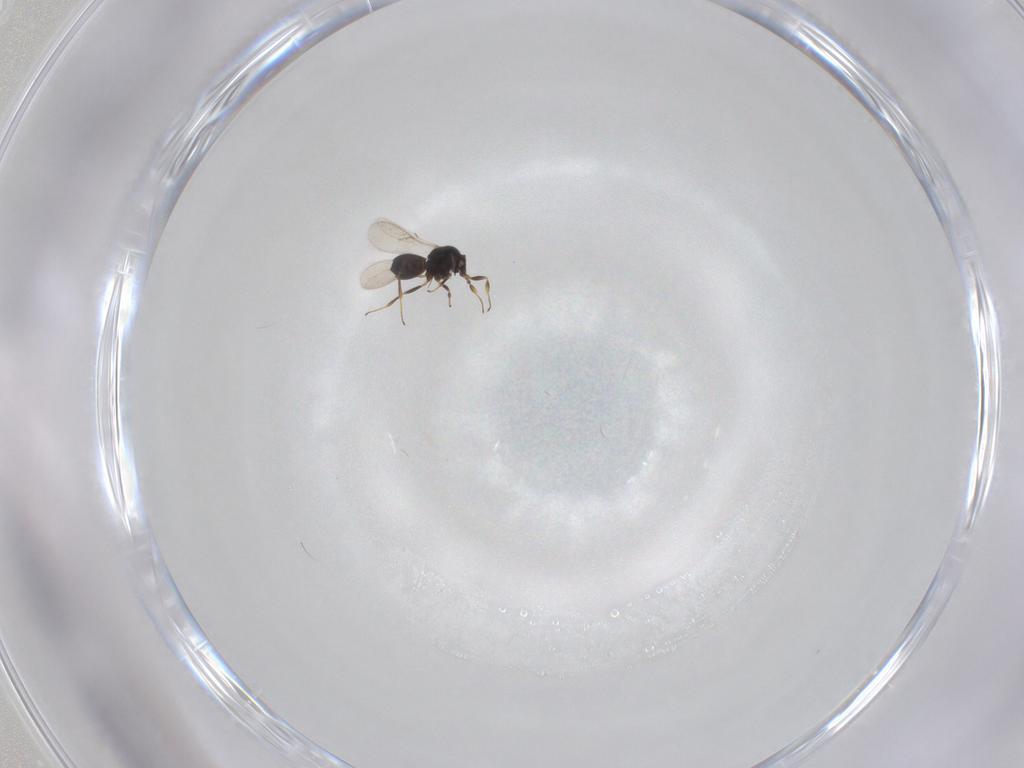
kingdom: Animalia
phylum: Arthropoda
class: Insecta
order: Hymenoptera
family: Scelionidae
